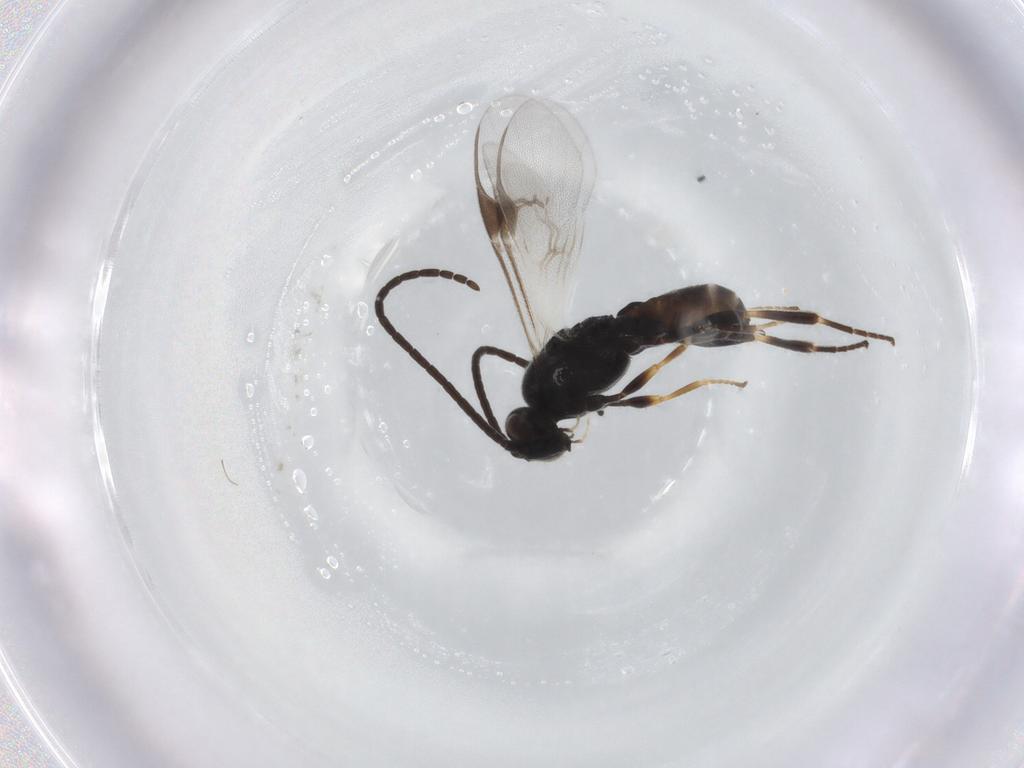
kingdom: Animalia
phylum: Arthropoda
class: Insecta
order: Hymenoptera
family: Braconidae
